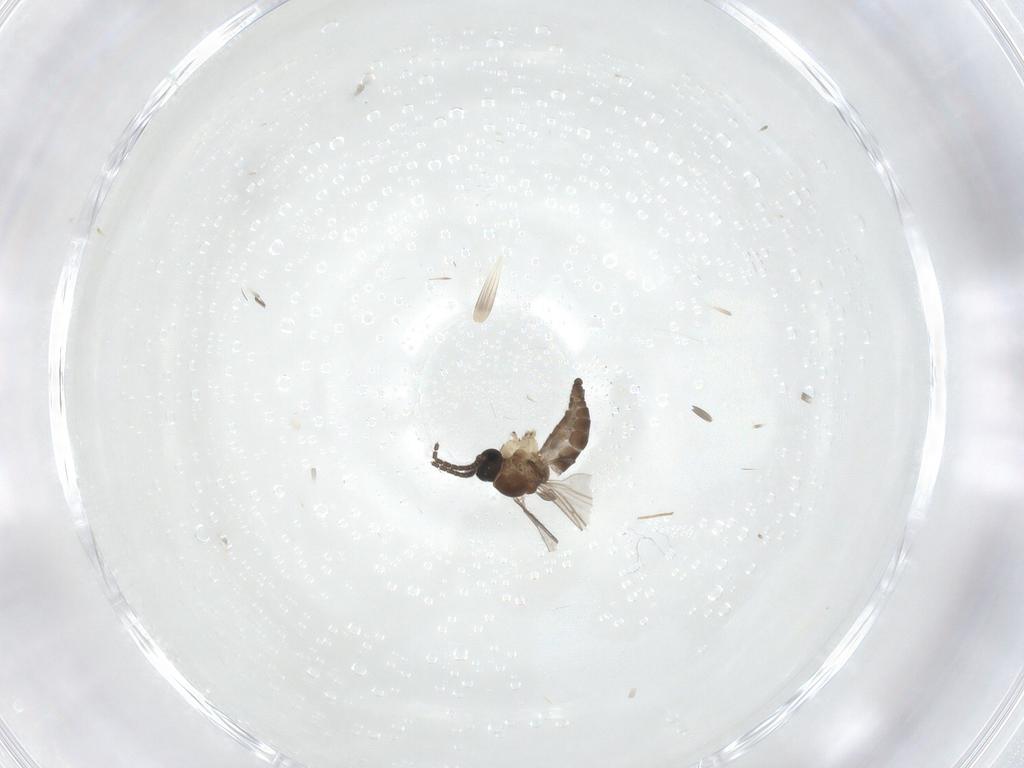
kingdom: Animalia
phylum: Arthropoda
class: Insecta
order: Diptera
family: Sciaridae
